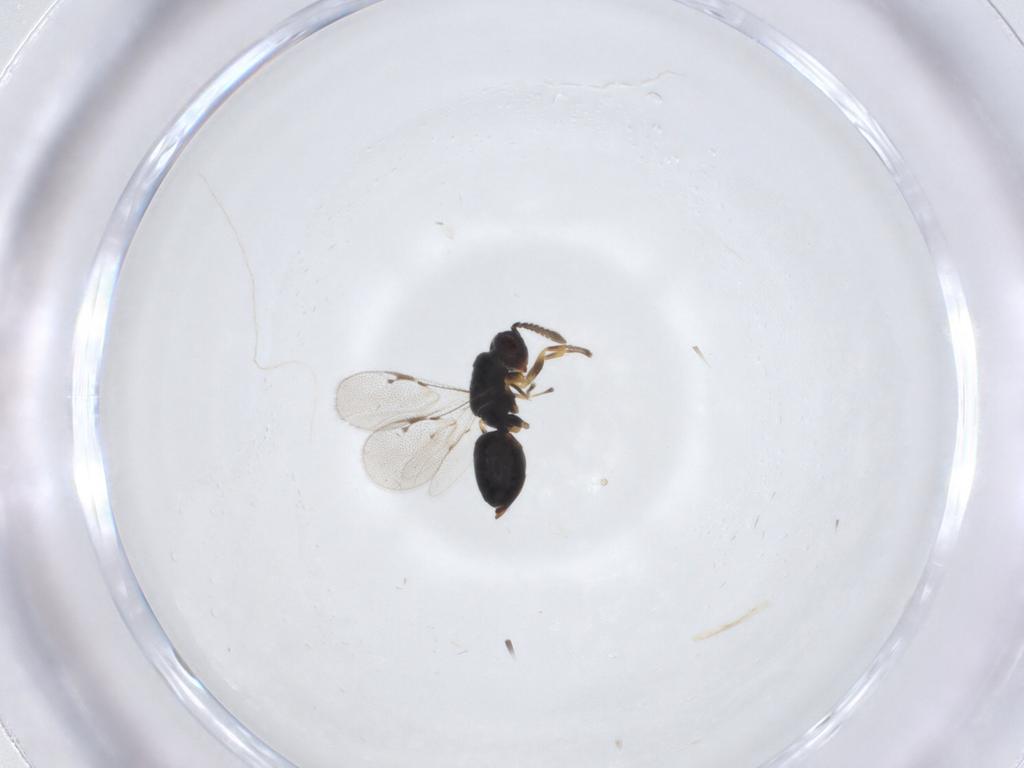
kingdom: Animalia
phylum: Arthropoda
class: Insecta
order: Hymenoptera
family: Eurytomidae
